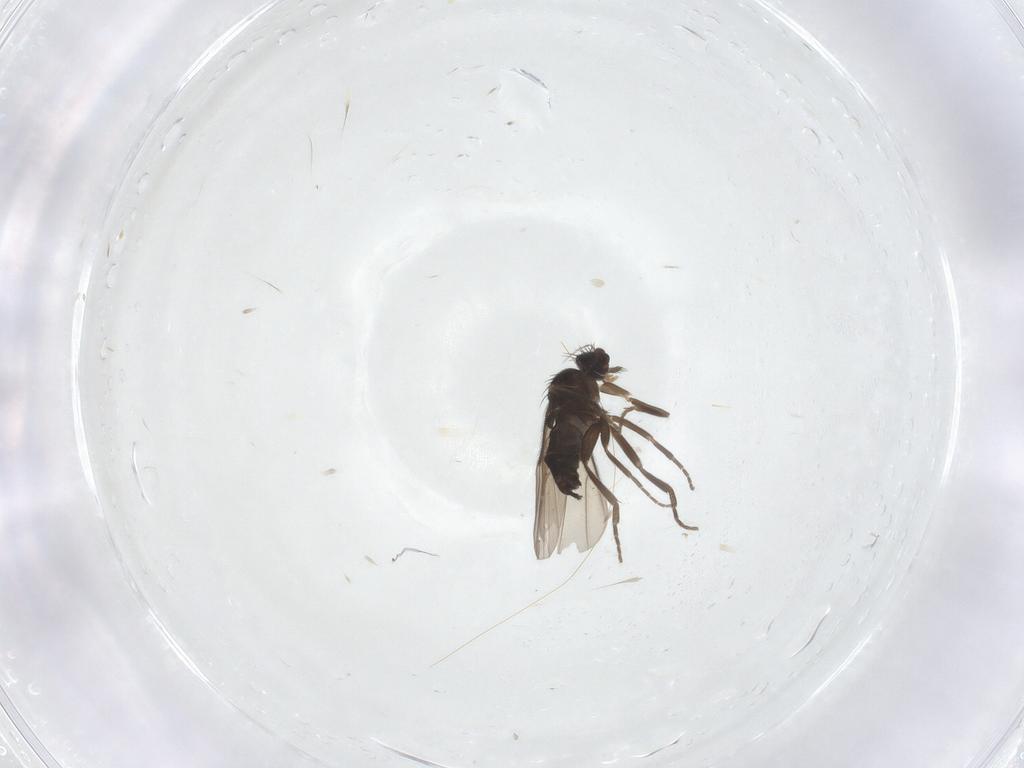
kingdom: Animalia
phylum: Arthropoda
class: Insecta
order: Diptera
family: Cecidomyiidae
